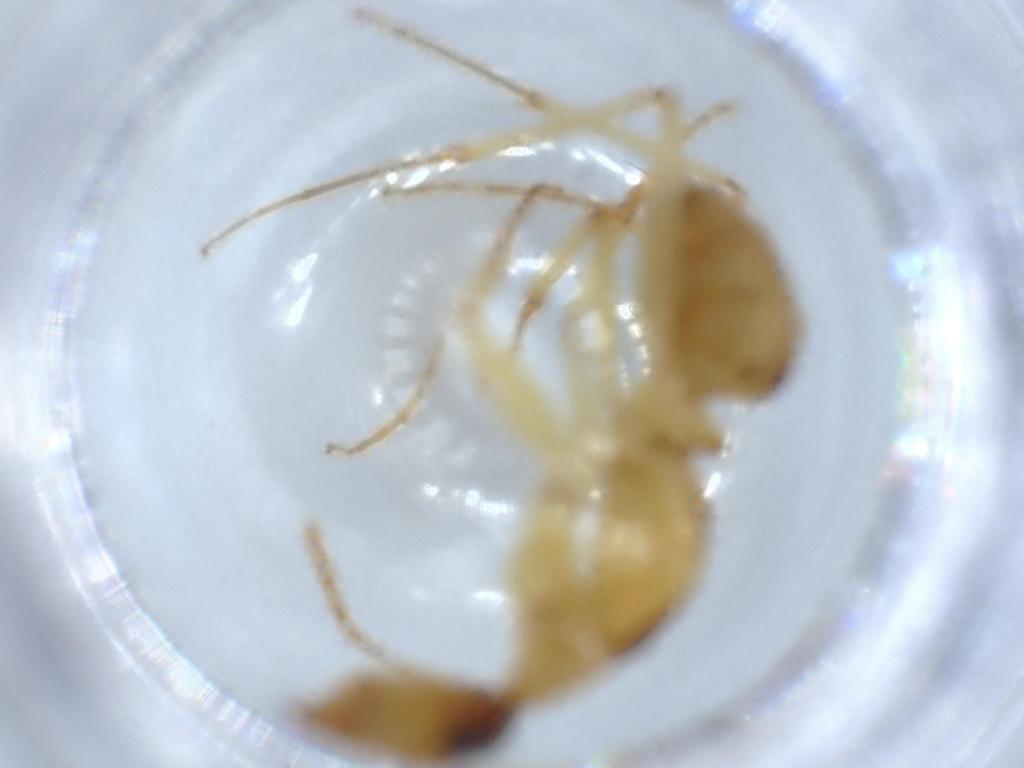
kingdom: Animalia
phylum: Arthropoda
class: Insecta
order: Hymenoptera
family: Formicidae
